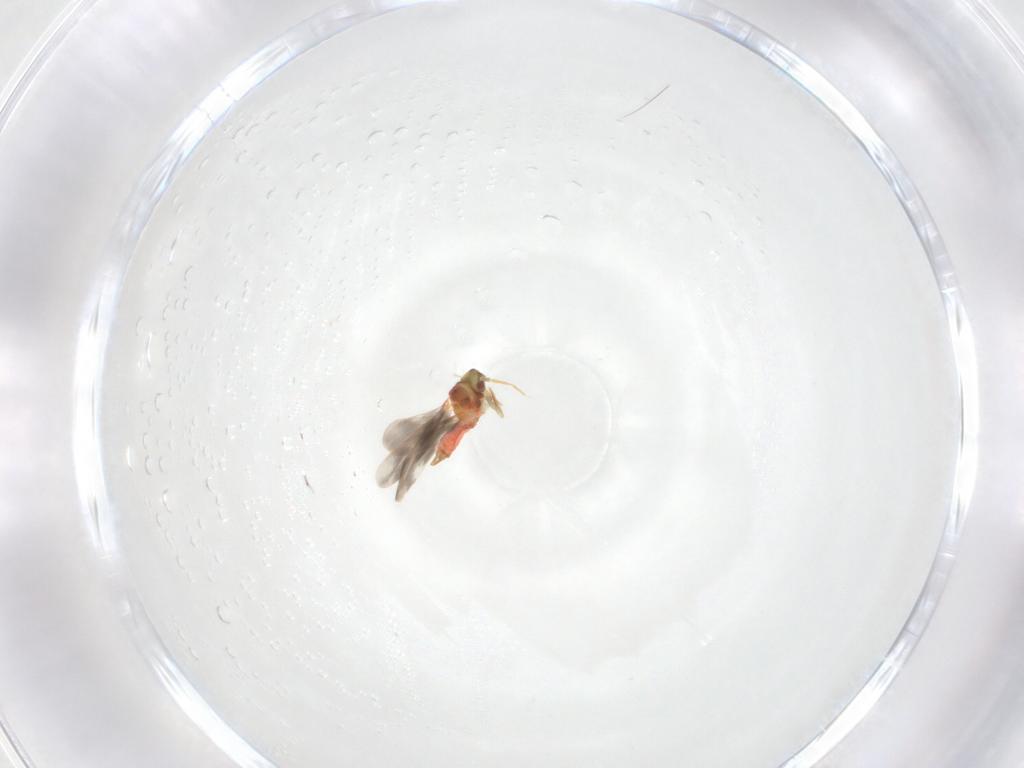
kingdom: Animalia
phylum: Arthropoda
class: Insecta
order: Hemiptera
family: Aleyrodidae
